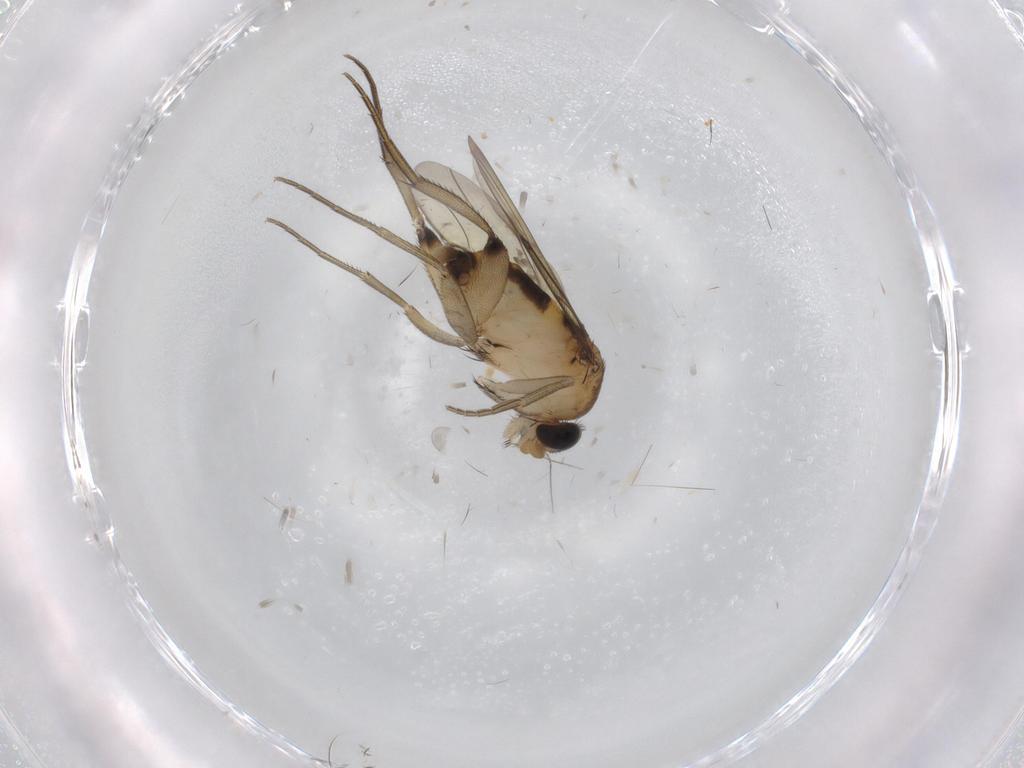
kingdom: Animalia
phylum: Arthropoda
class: Insecta
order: Diptera
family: Phoridae
